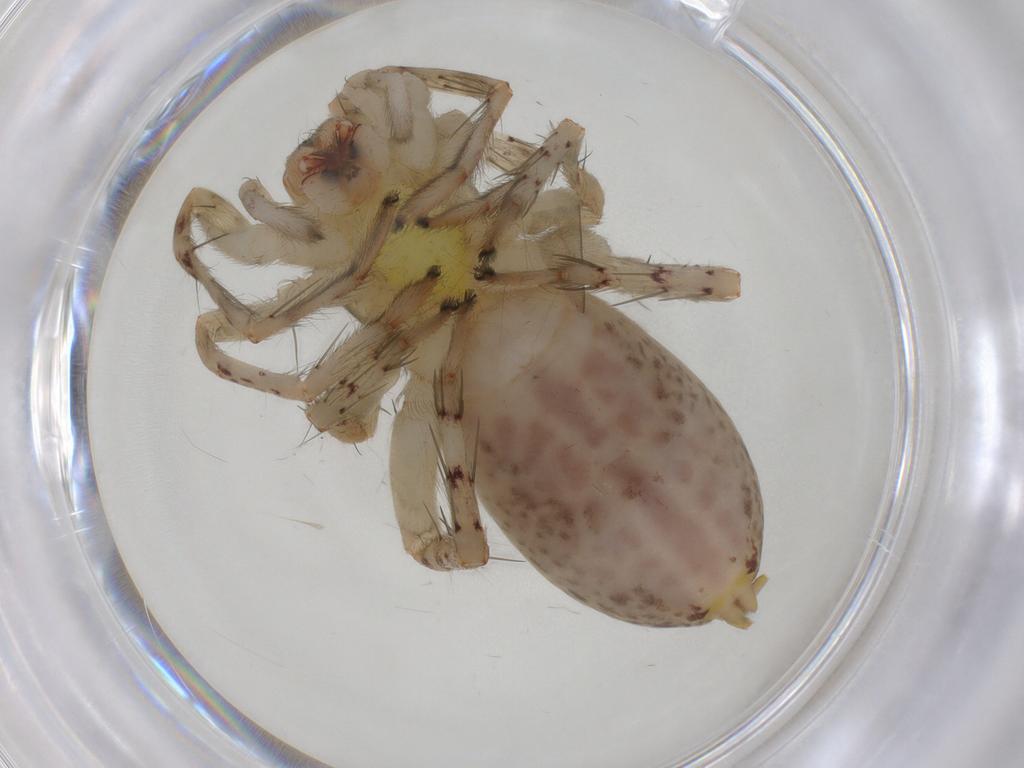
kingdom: Animalia
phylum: Arthropoda
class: Arachnida
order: Araneae
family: Anyphaenidae
